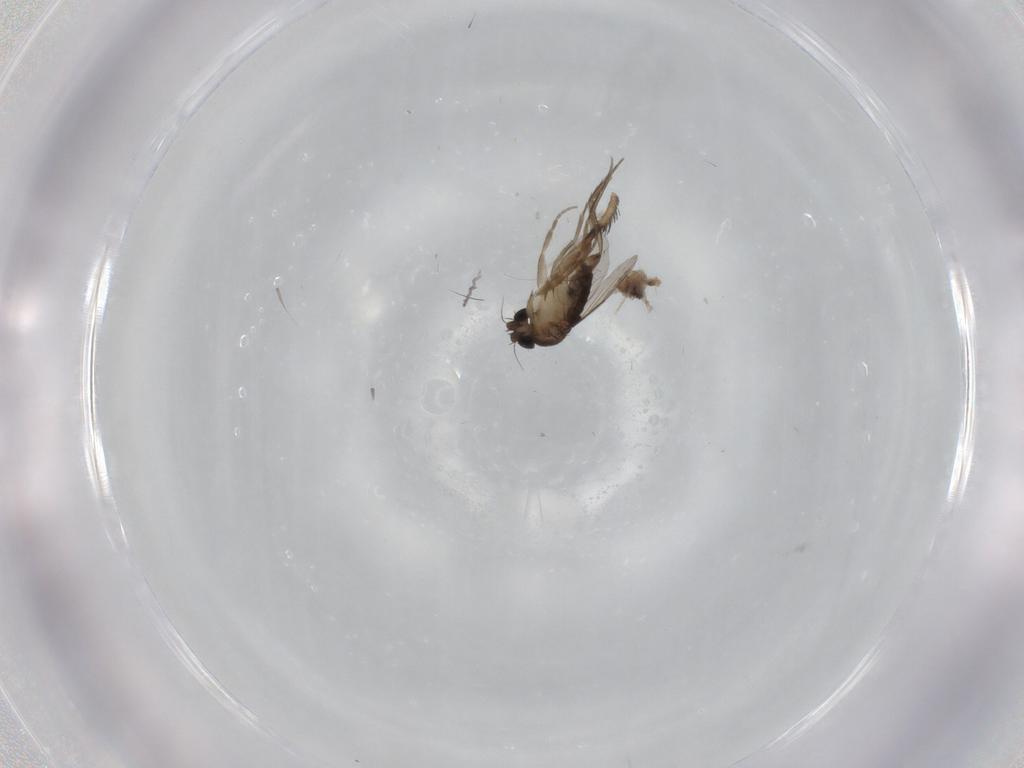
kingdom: Animalia
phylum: Arthropoda
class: Insecta
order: Diptera
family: Phoridae
